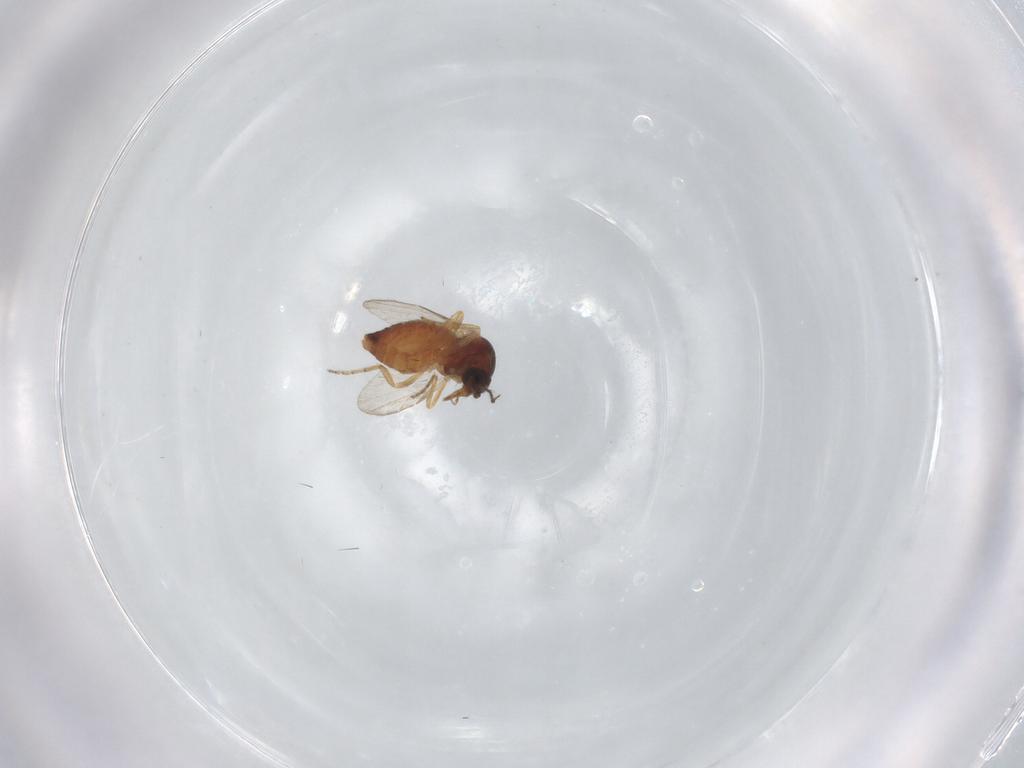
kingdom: Animalia
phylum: Arthropoda
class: Insecta
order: Diptera
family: Ceratopogonidae
